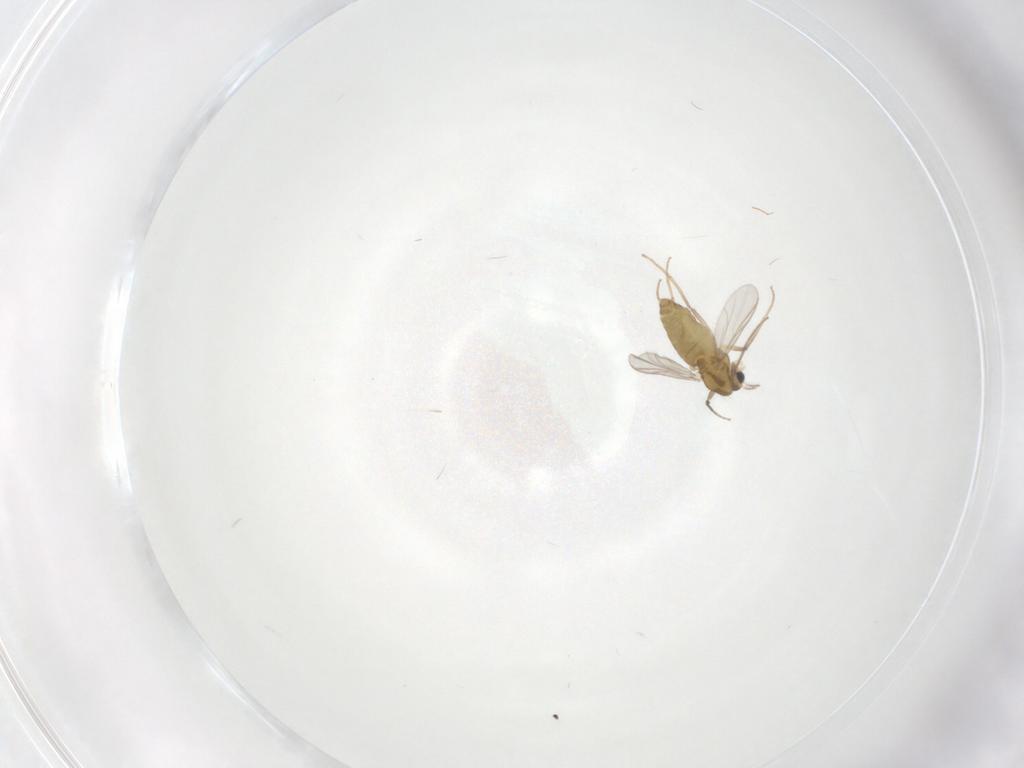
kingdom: Animalia
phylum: Arthropoda
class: Insecta
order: Diptera
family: Chironomidae
